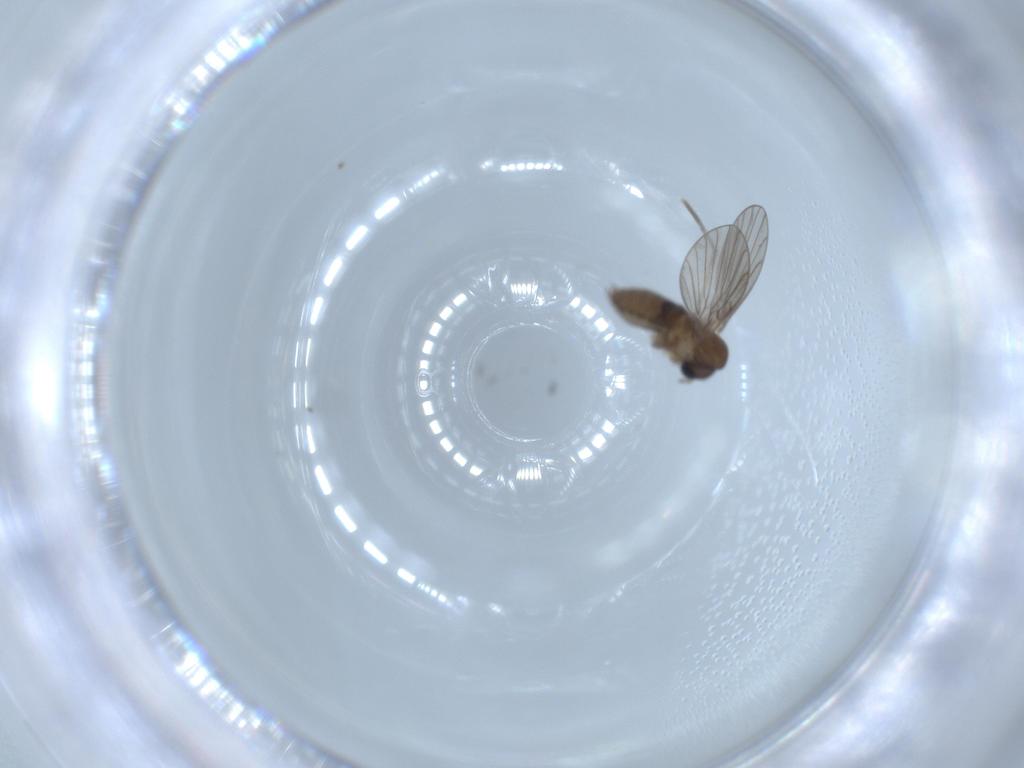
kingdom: Animalia
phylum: Arthropoda
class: Insecta
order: Diptera
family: Psychodidae
